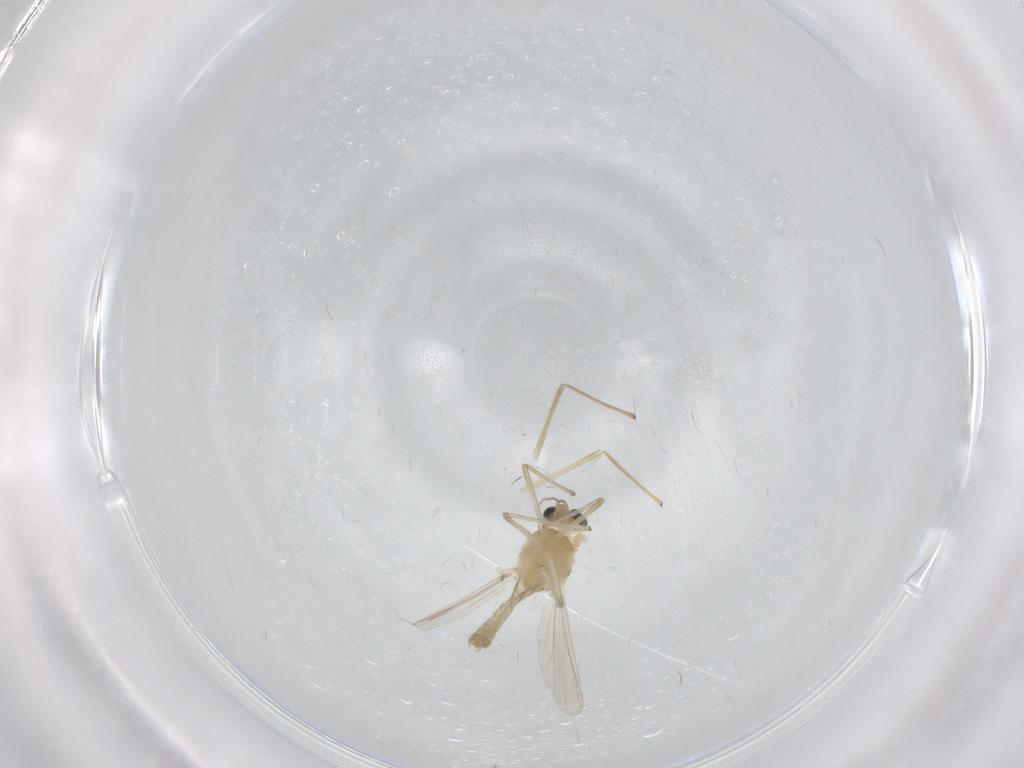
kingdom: Animalia
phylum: Arthropoda
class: Insecta
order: Diptera
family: Chironomidae
